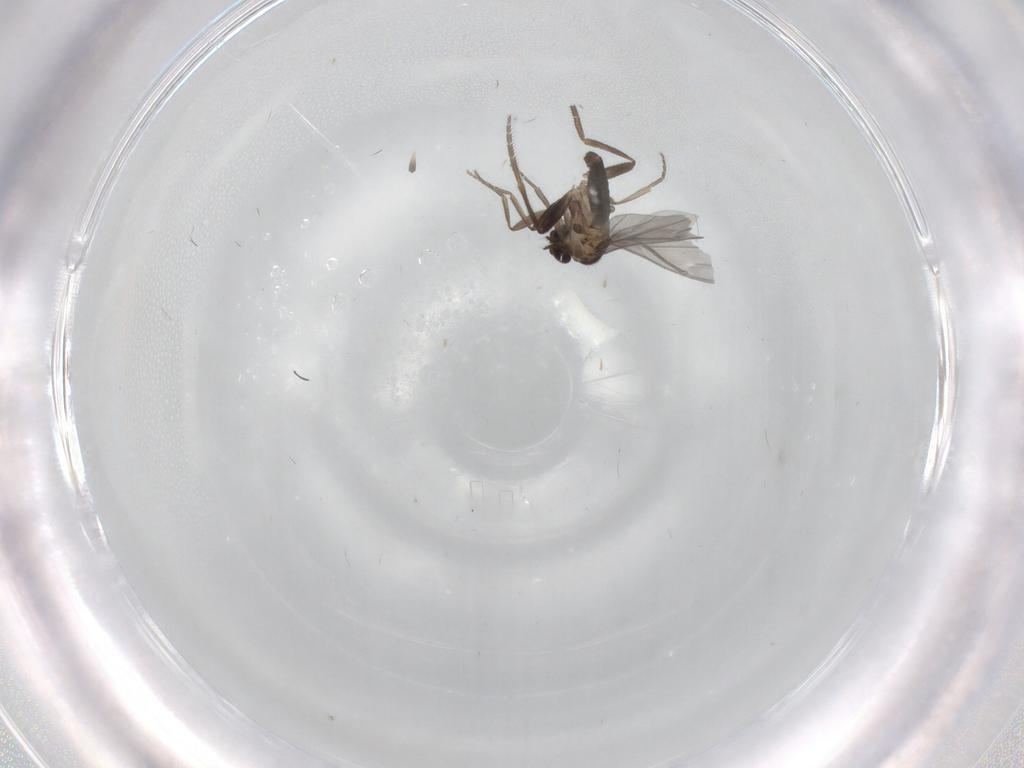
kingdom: Animalia
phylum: Arthropoda
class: Insecta
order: Diptera
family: Phoridae
